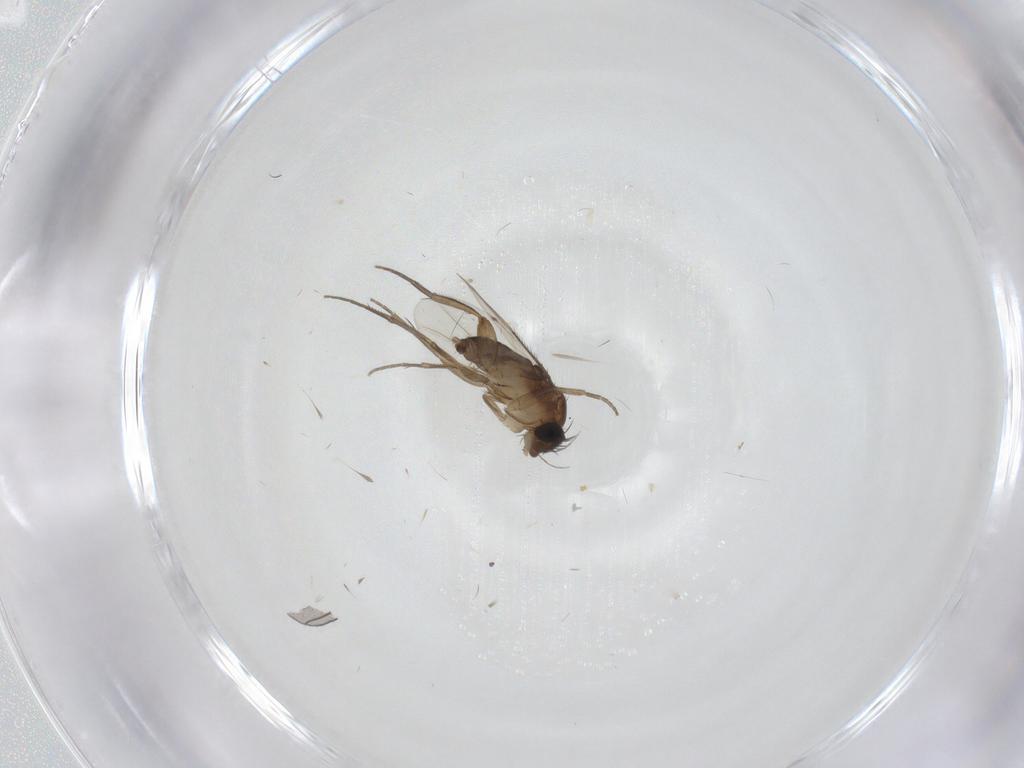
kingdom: Animalia
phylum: Arthropoda
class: Insecta
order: Diptera
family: Phoridae
